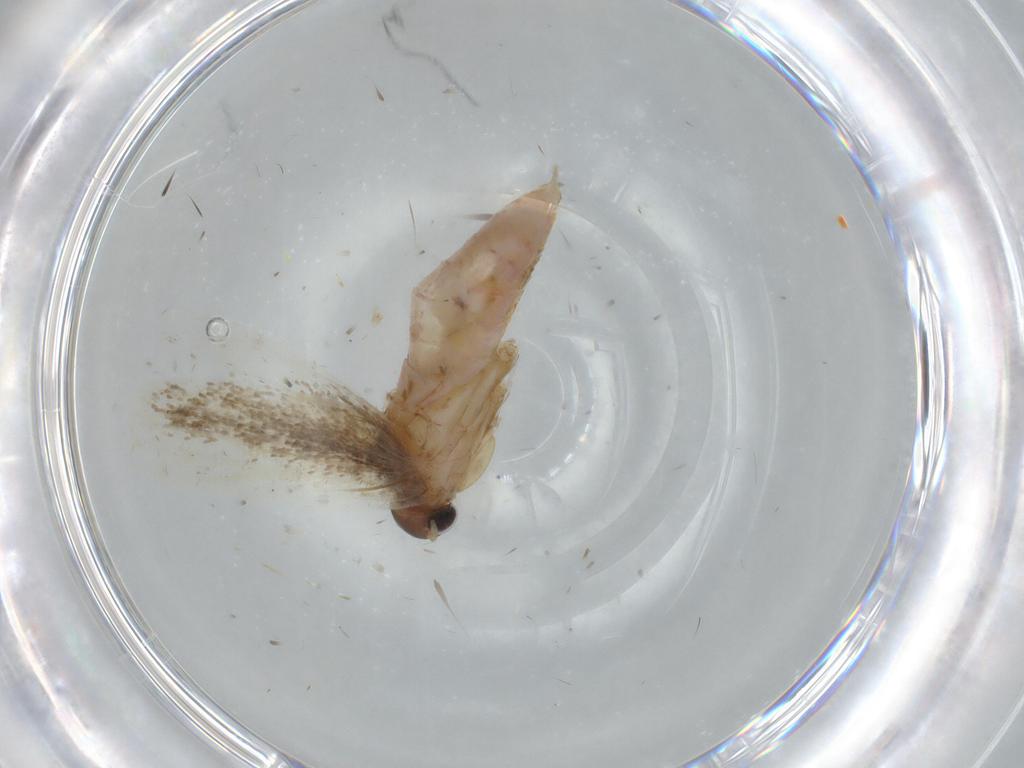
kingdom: Animalia
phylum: Arthropoda
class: Insecta
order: Lepidoptera
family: Gelechiidae
